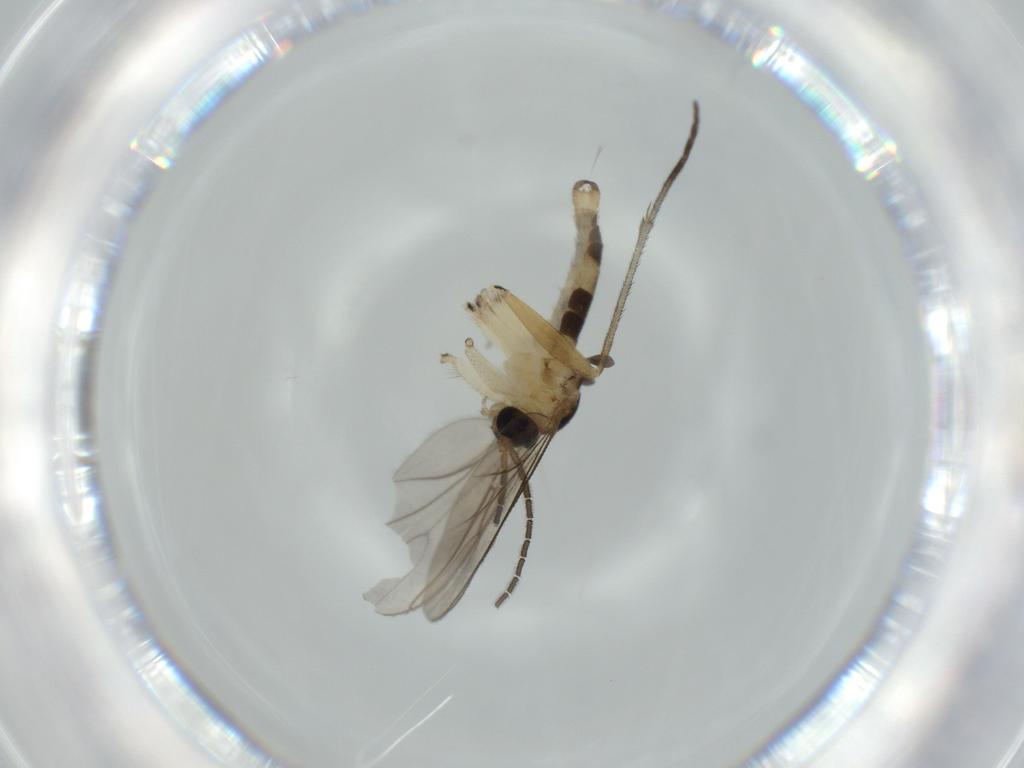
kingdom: Animalia
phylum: Arthropoda
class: Insecta
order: Diptera
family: Sciaridae
